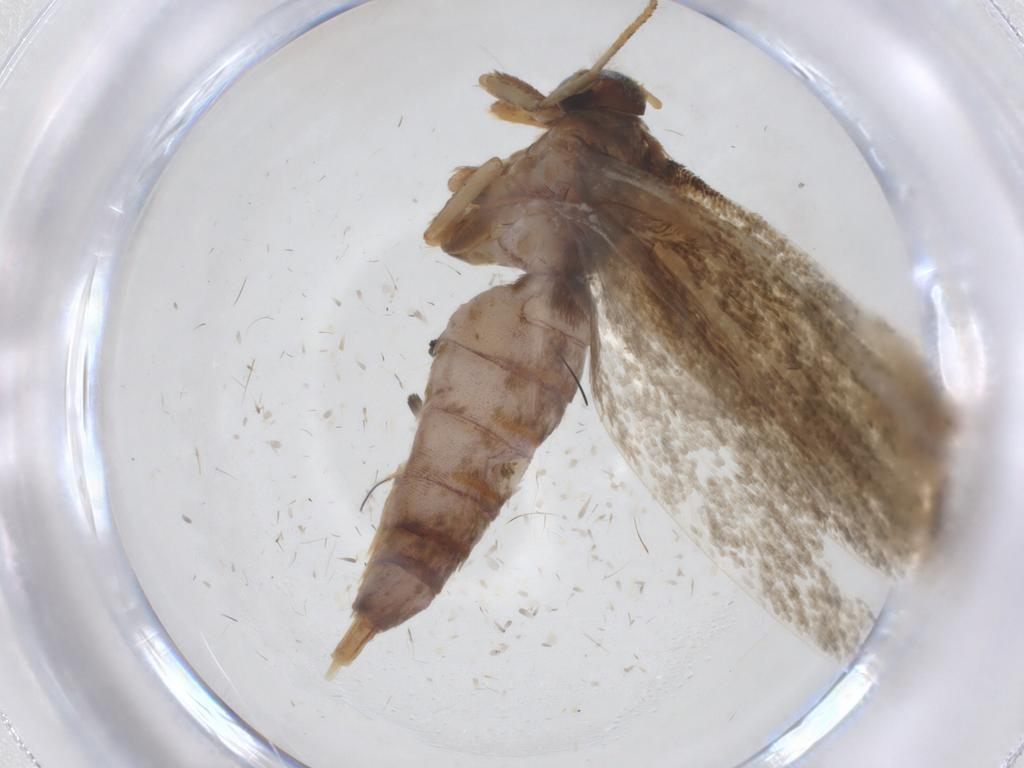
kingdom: Animalia
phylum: Arthropoda
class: Insecta
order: Lepidoptera
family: Blastobasidae
